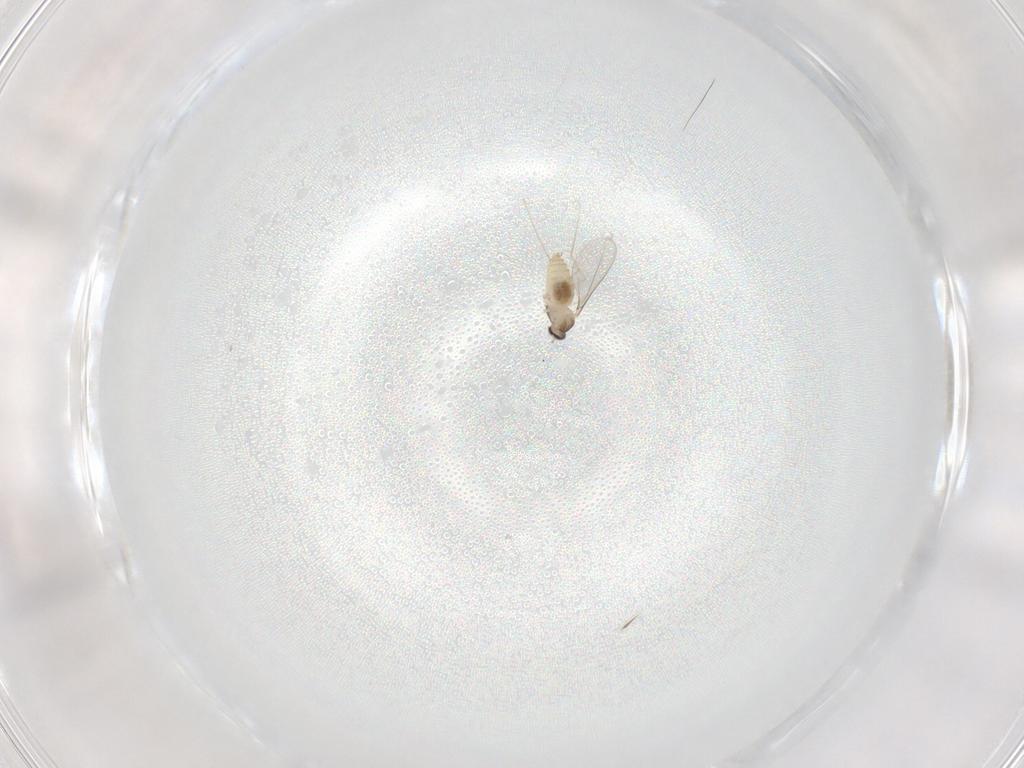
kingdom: Animalia
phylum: Arthropoda
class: Insecta
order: Diptera
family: Cecidomyiidae
